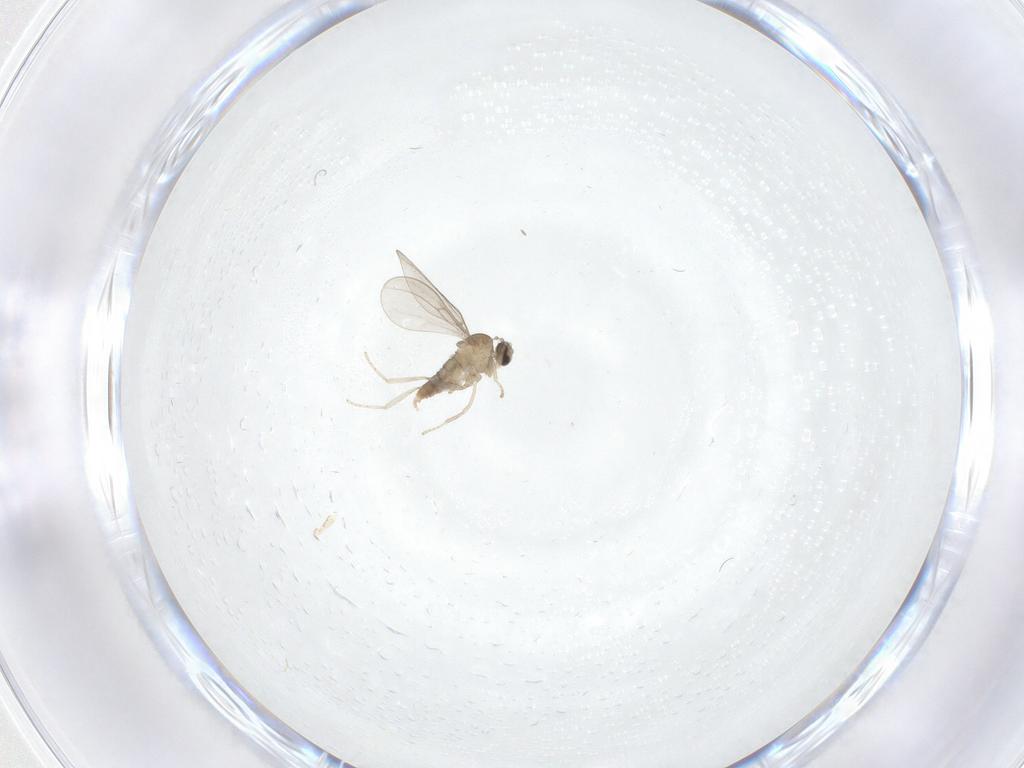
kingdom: Animalia
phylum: Arthropoda
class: Insecta
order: Diptera
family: Cecidomyiidae
